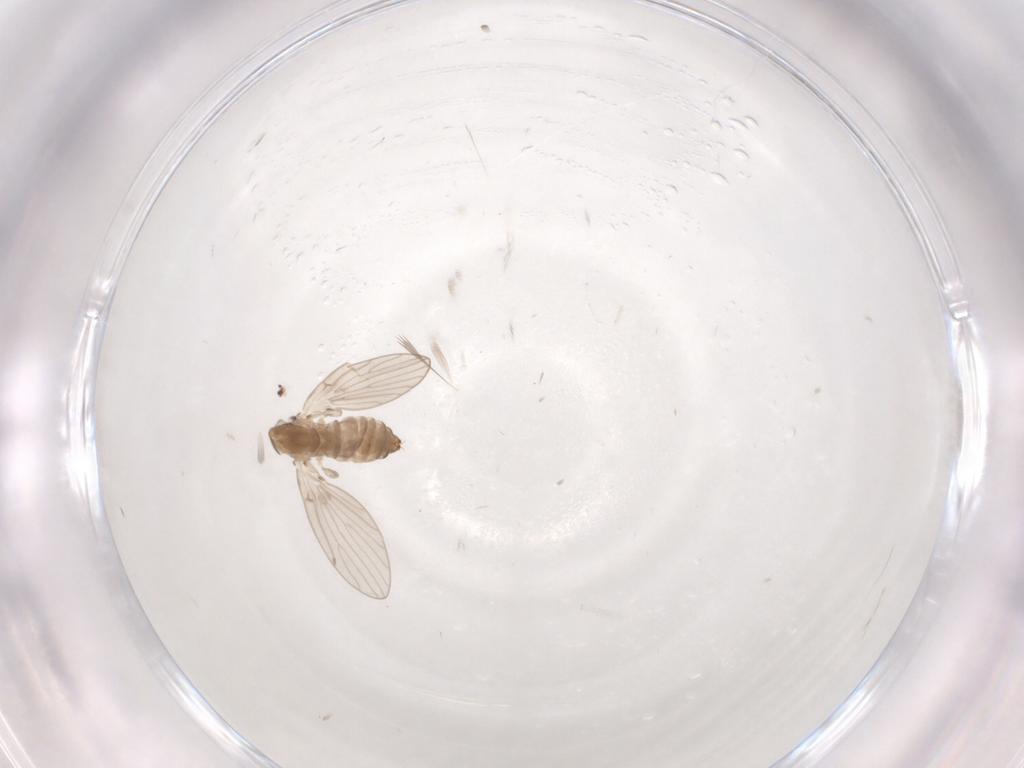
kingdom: Animalia
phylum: Arthropoda
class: Insecta
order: Diptera
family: Psychodidae
